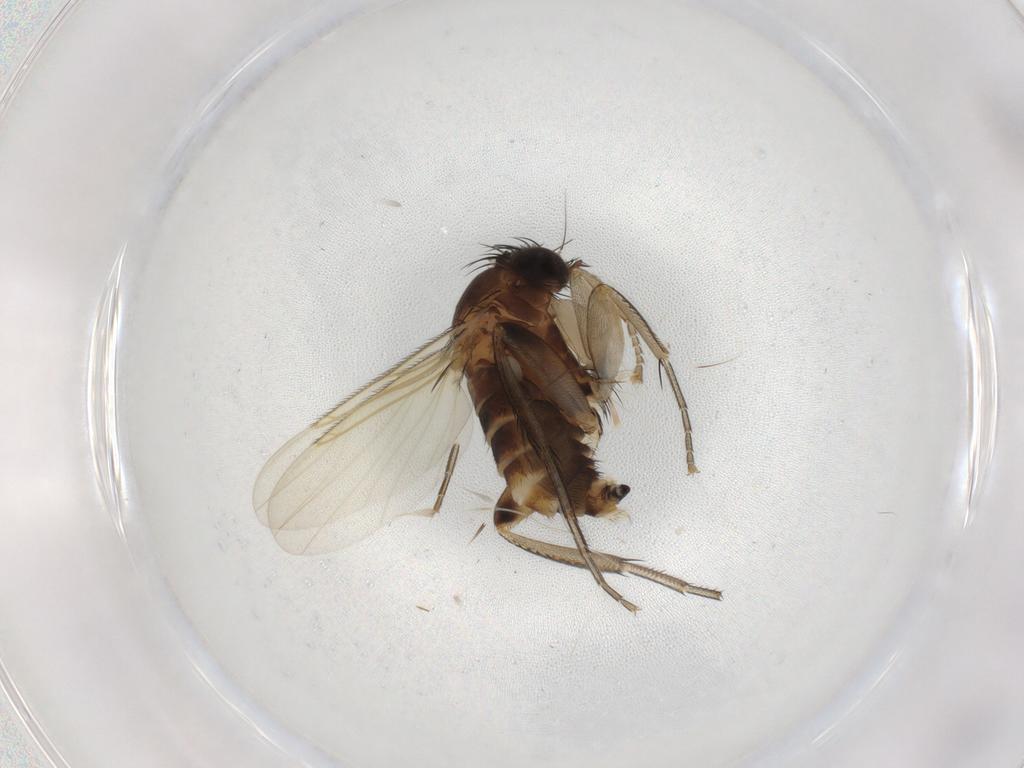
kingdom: Animalia
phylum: Arthropoda
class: Insecta
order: Diptera
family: Phoridae
